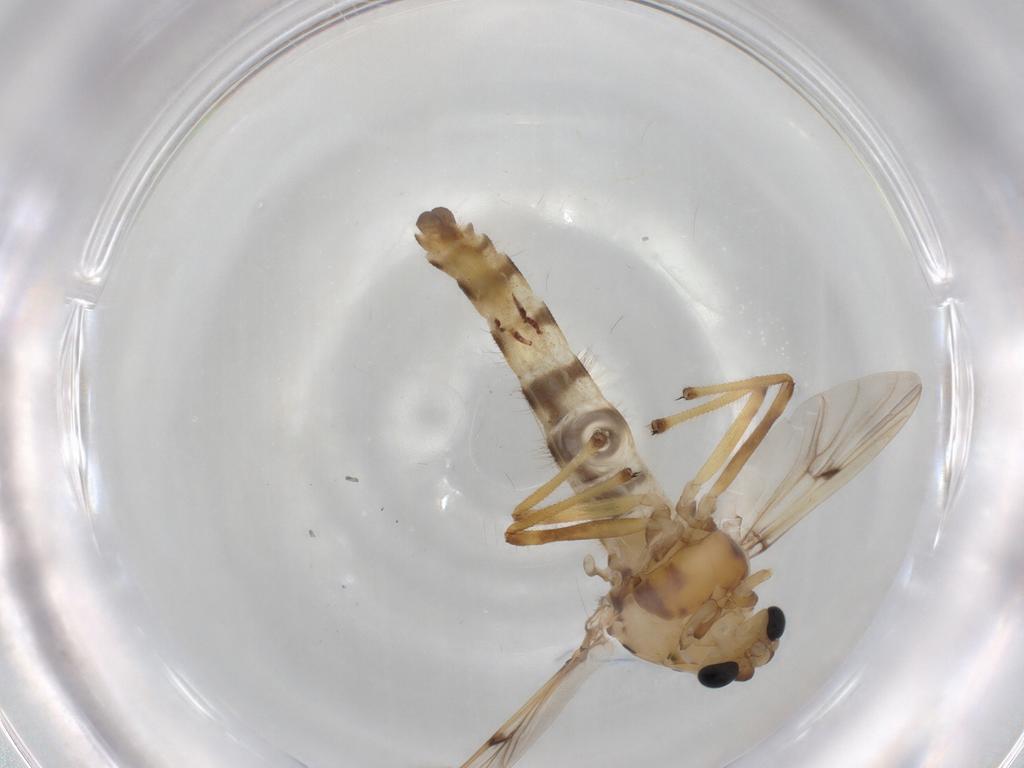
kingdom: Animalia
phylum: Arthropoda
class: Insecta
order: Diptera
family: Chironomidae
